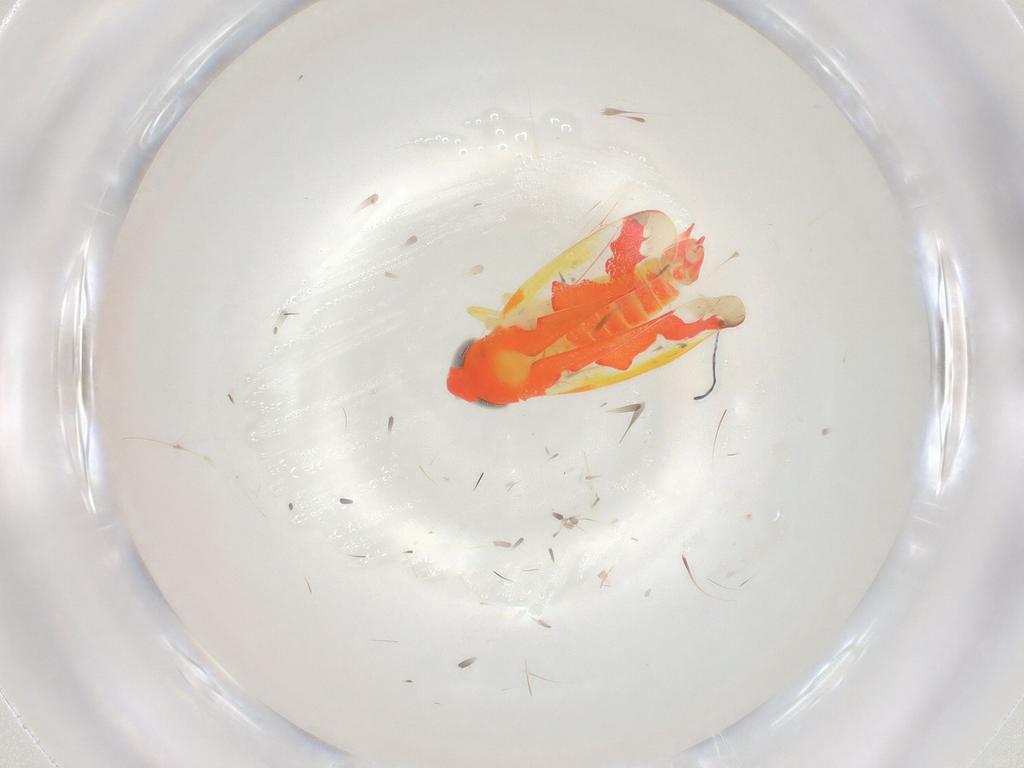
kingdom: Animalia
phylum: Arthropoda
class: Insecta
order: Hemiptera
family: Cicadellidae
